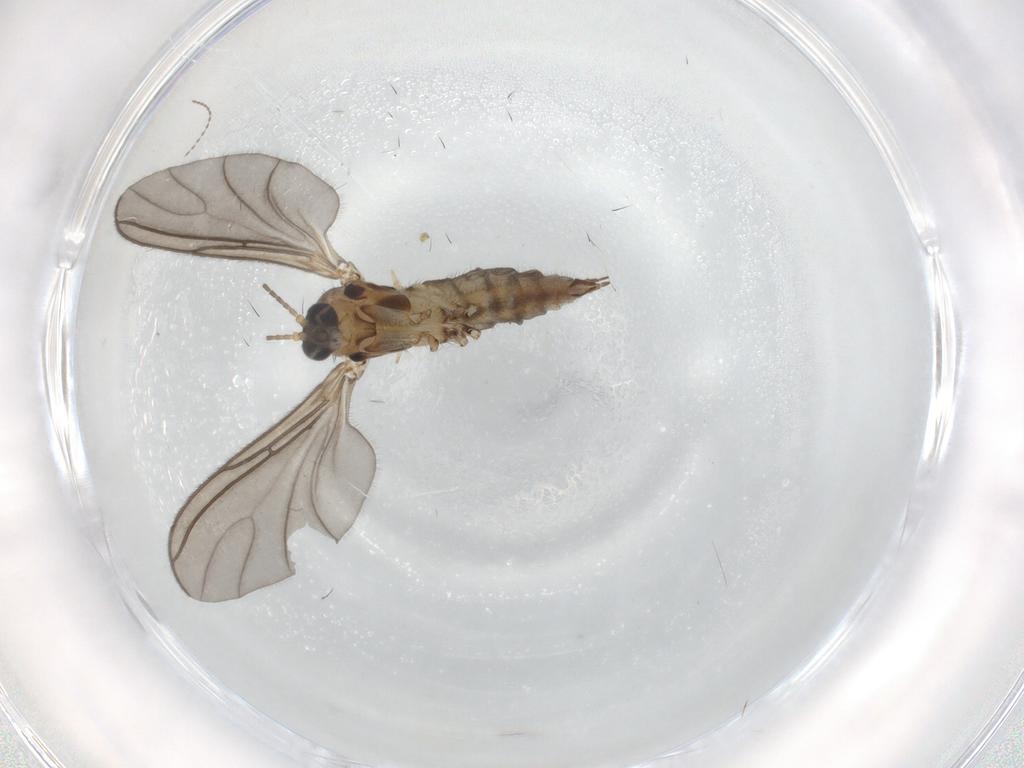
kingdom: Animalia
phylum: Arthropoda
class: Insecta
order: Diptera
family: Sciaridae
